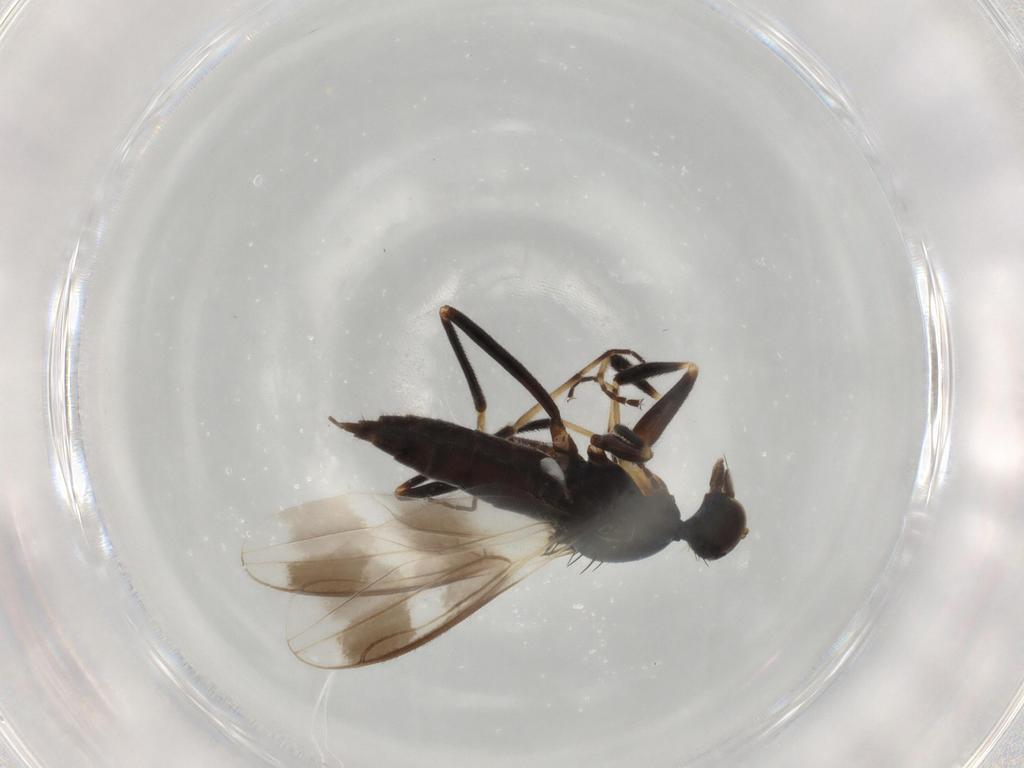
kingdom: Animalia
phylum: Arthropoda
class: Insecta
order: Diptera
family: Hybotidae
